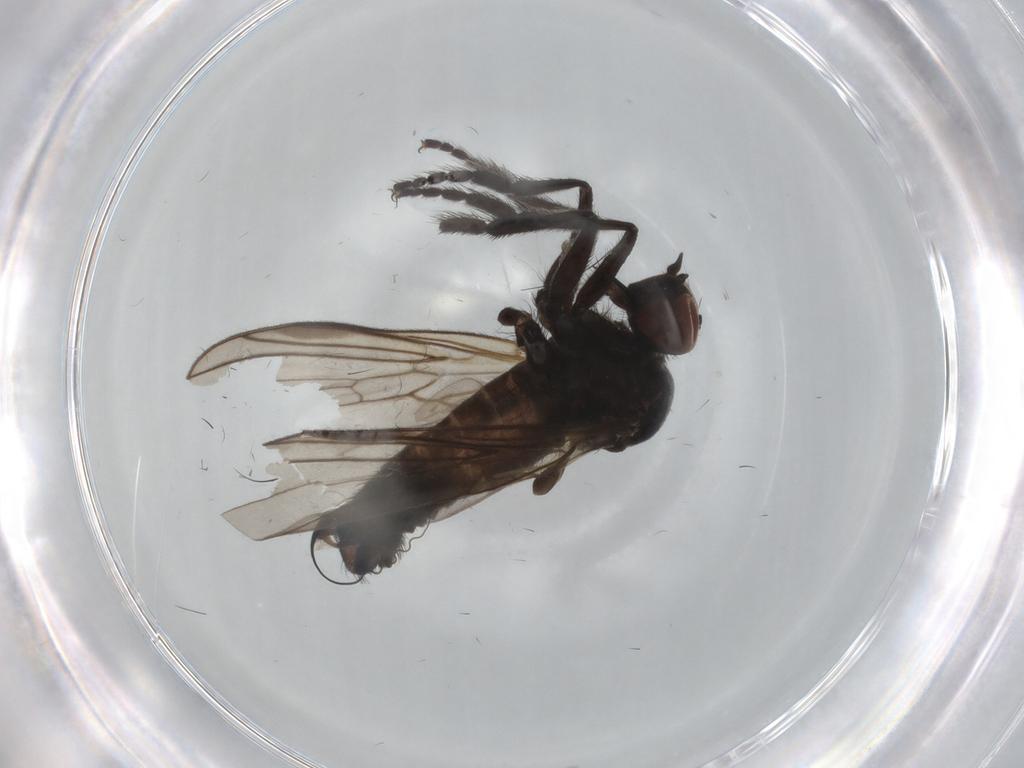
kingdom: Animalia
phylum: Arthropoda
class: Insecta
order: Diptera
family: Empididae
